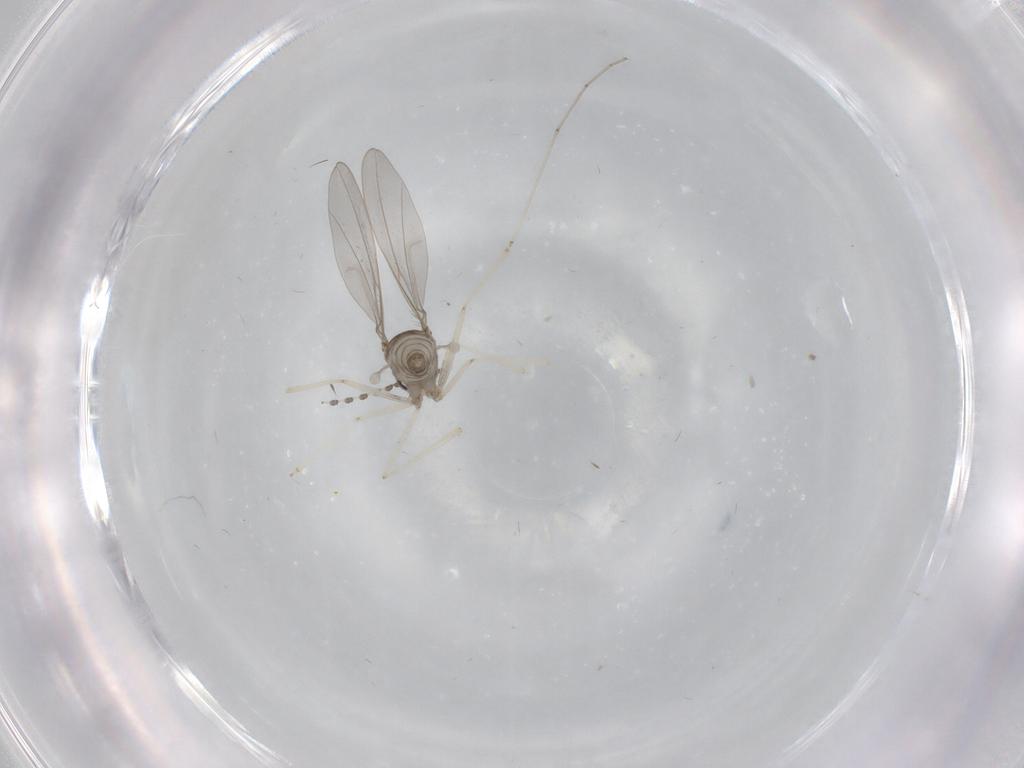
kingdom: Animalia
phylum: Arthropoda
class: Insecta
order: Diptera
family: Cecidomyiidae
